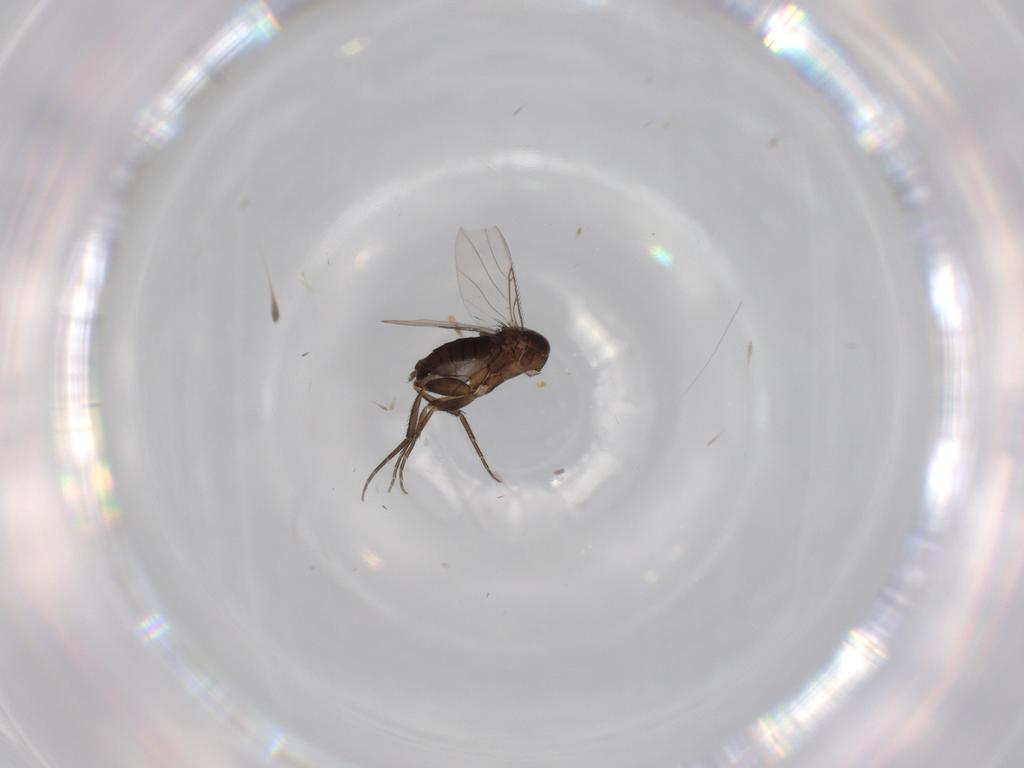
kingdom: Animalia
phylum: Arthropoda
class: Insecta
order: Diptera
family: Phoridae
